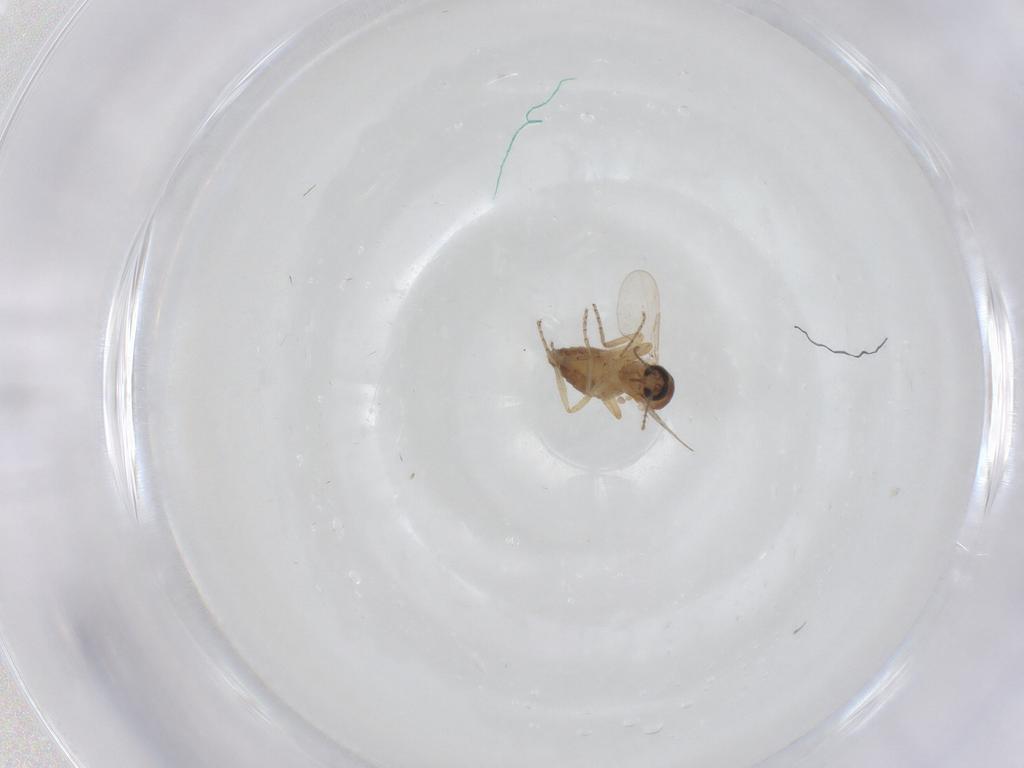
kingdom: Animalia
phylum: Arthropoda
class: Insecta
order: Diptera
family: Ceratopogonidae
